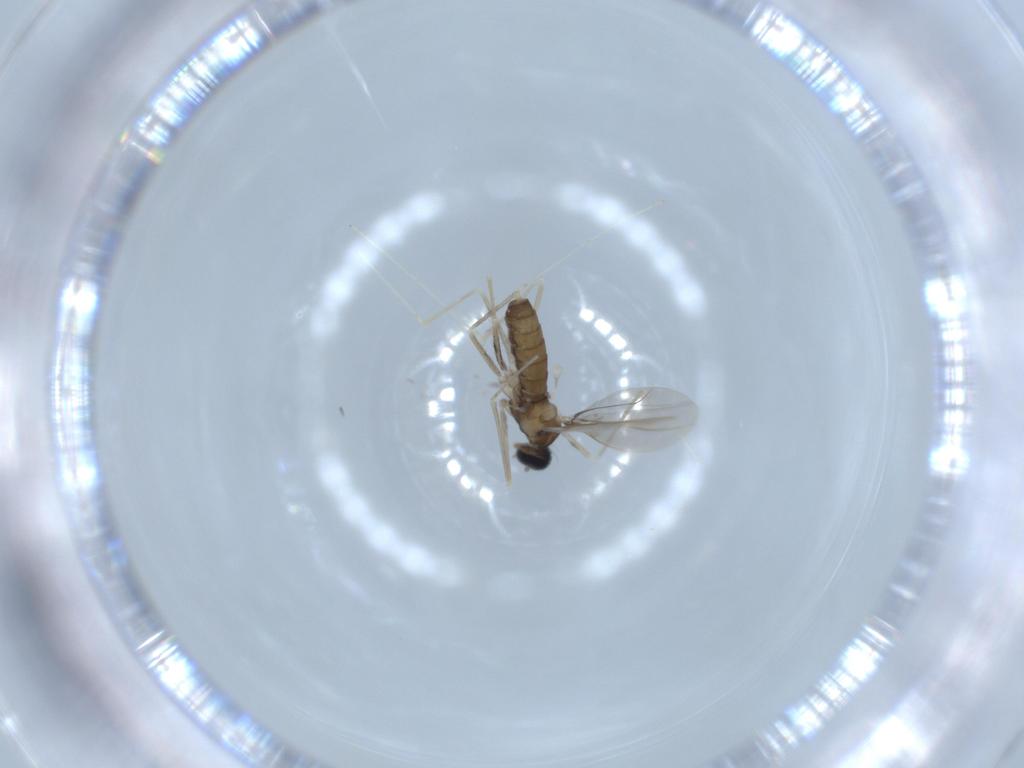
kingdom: Animalia
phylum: Arthropoda
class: Insecta
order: Diptera
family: Cecidomyiidae
